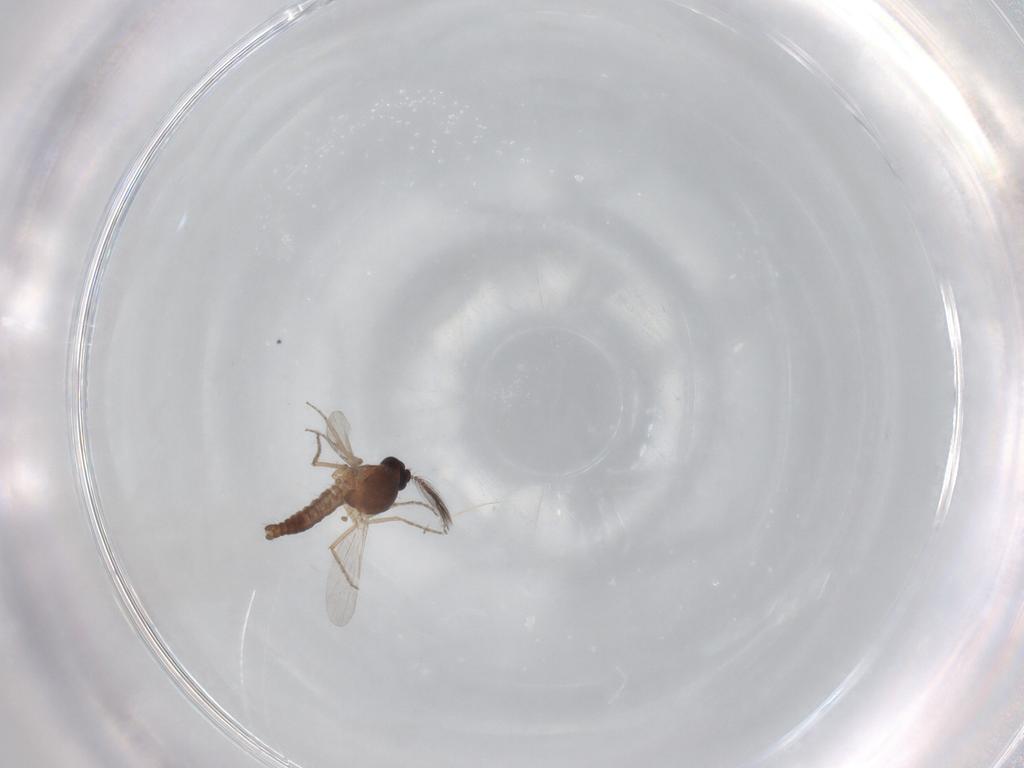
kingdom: Animalia
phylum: Arthropoda
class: Insecta
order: Diptera
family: Ceratopogonidae
